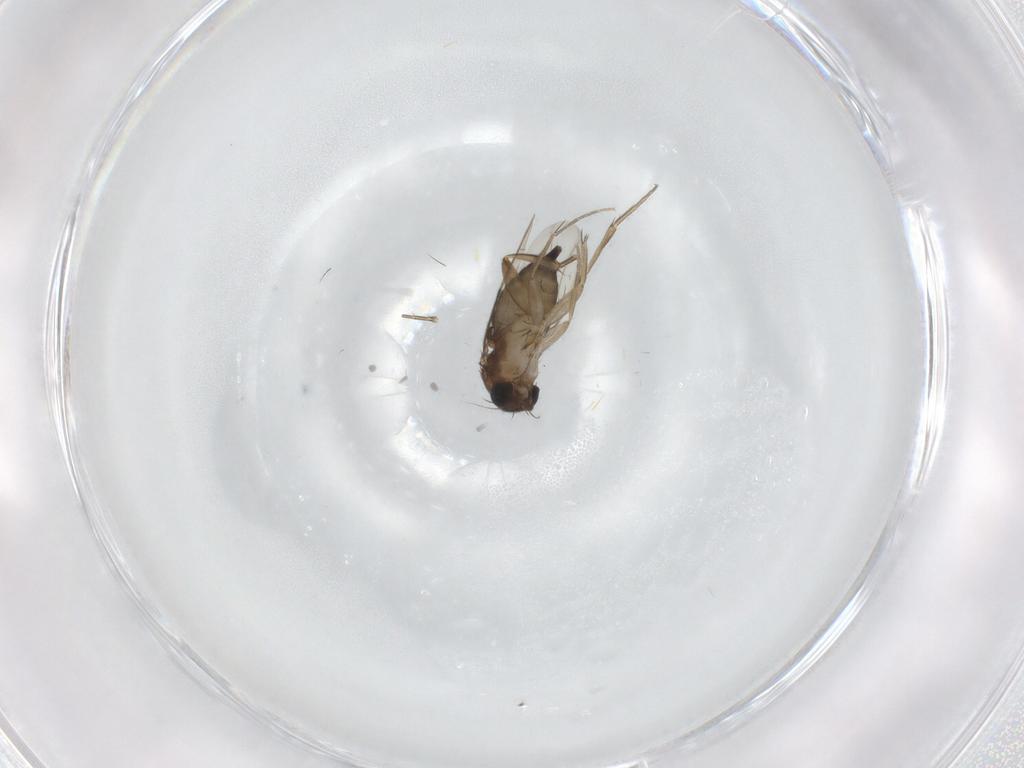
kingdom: Animalia
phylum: Arthropoda
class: Insecta
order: Diptera
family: Phoridae
